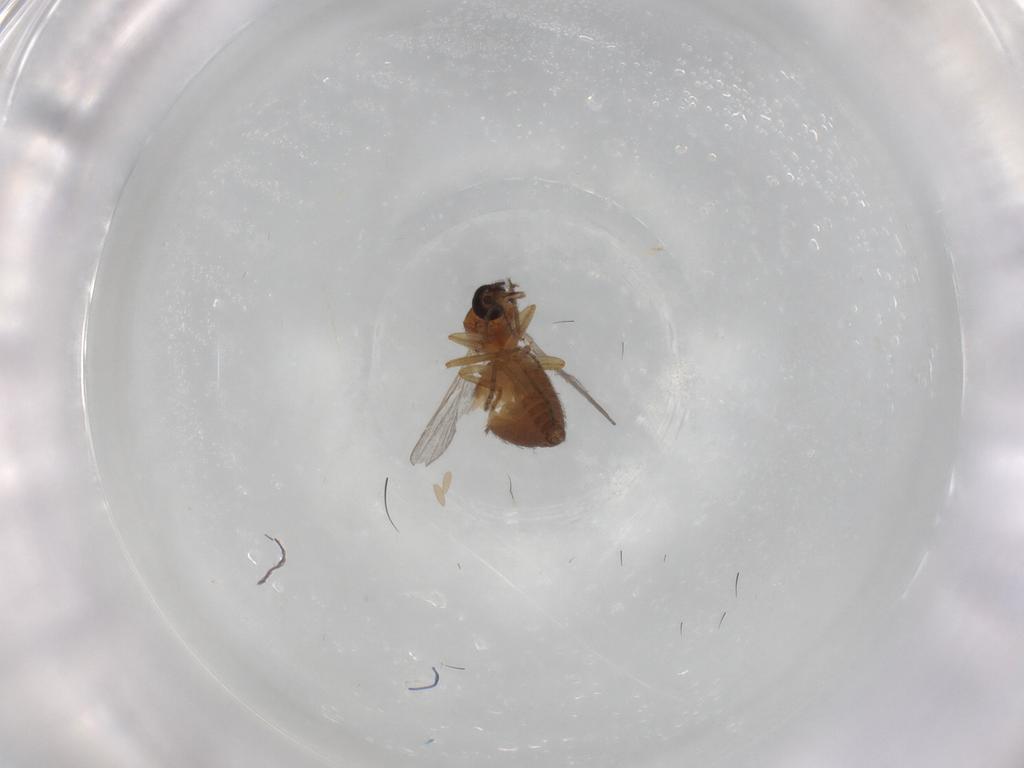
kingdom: Animalia
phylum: Arthropoda
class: Insecta
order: Diptera
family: Ceratopogonidae
